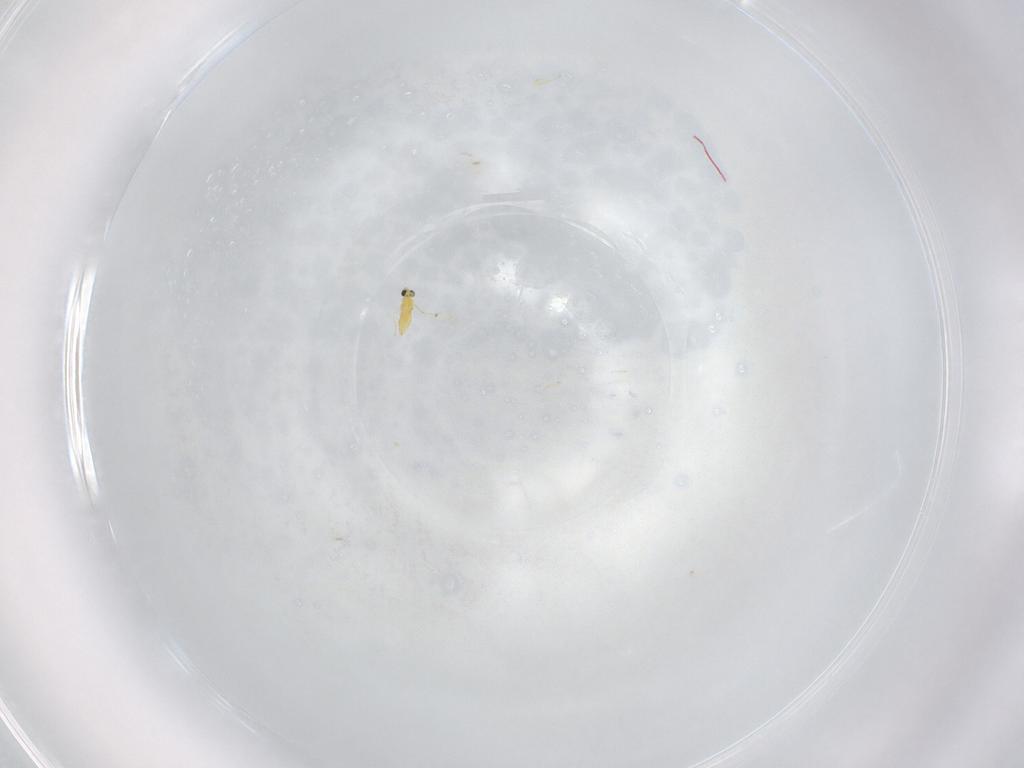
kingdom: Animalia
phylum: Arthropoda
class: Insecta
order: Hymenoptera
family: Trichogrammatidae
